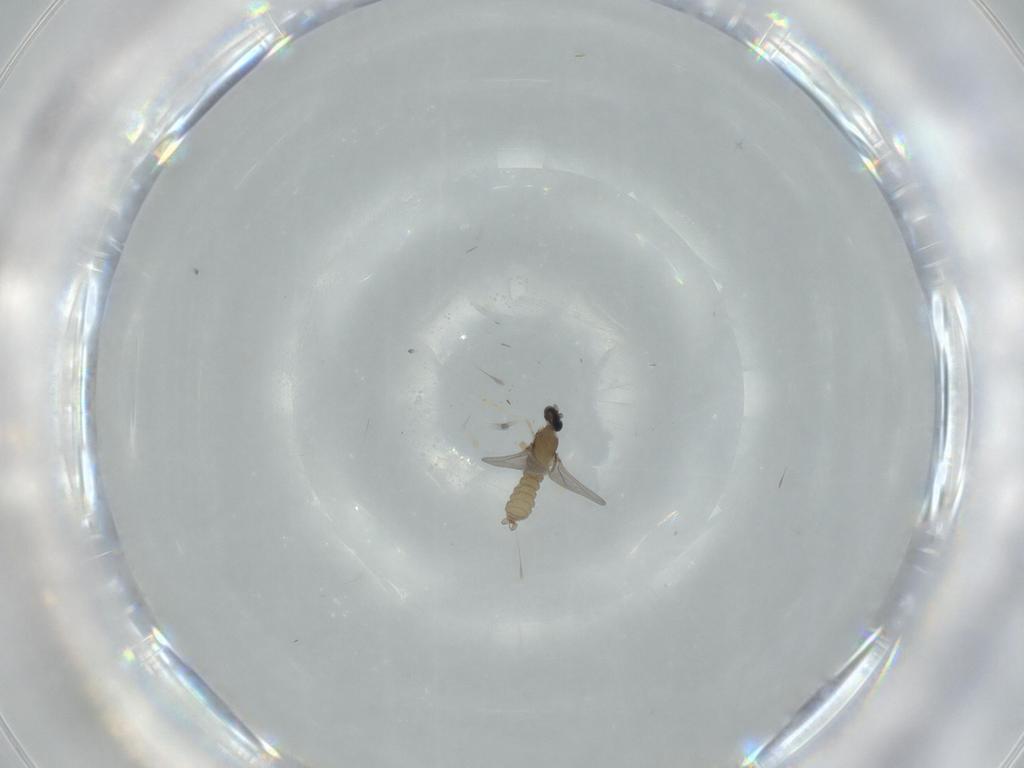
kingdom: Animalia
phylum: Arthropoda
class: Insecta
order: Diptera
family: Cecidomyiidae
